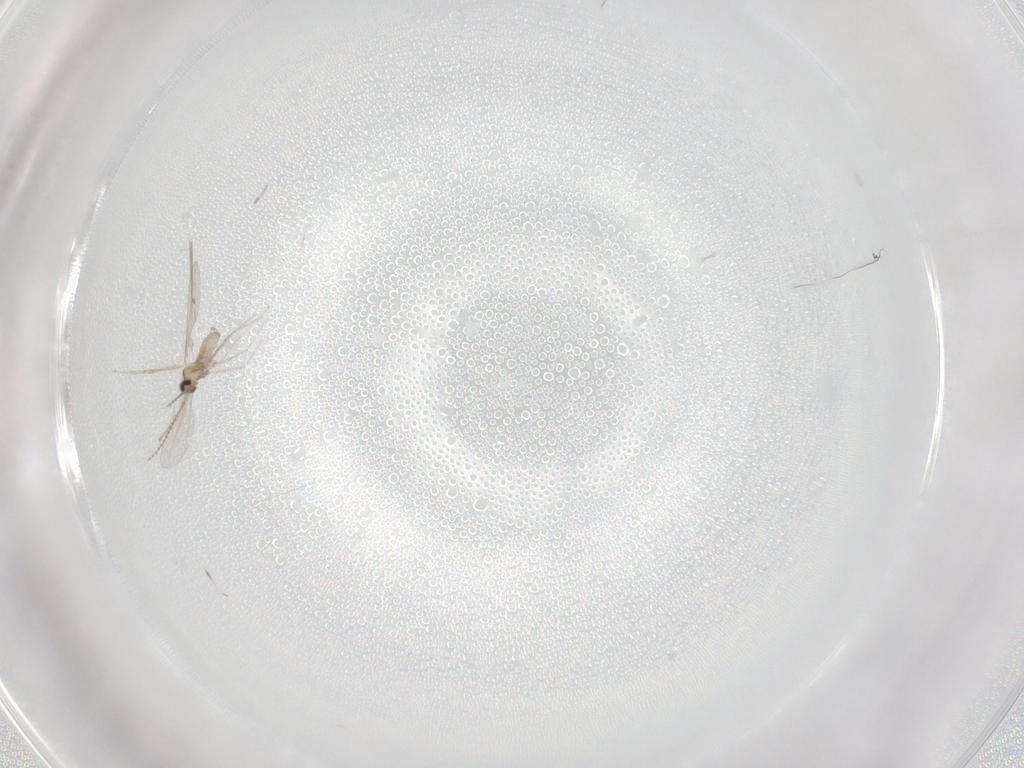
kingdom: Animalia
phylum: Arthropoda
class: Insecta
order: Diptera
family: Cecidomyiidae
